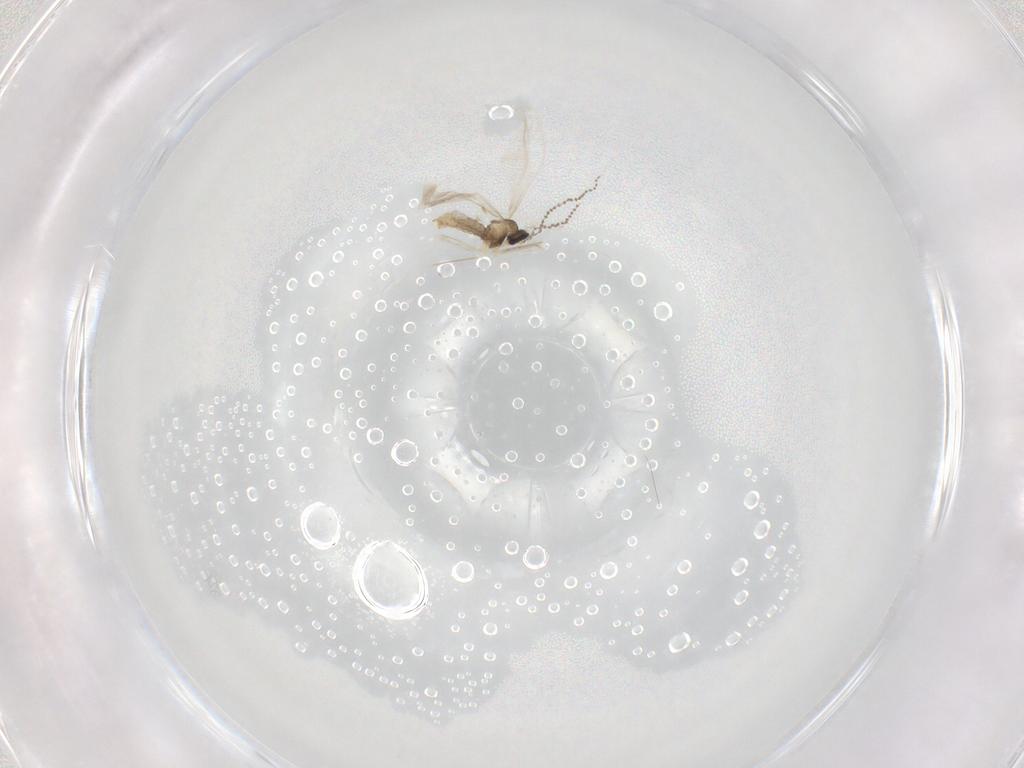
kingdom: Animalia
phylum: Arthropoda
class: Insecta
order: Diptera
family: Cecidomyiidae
